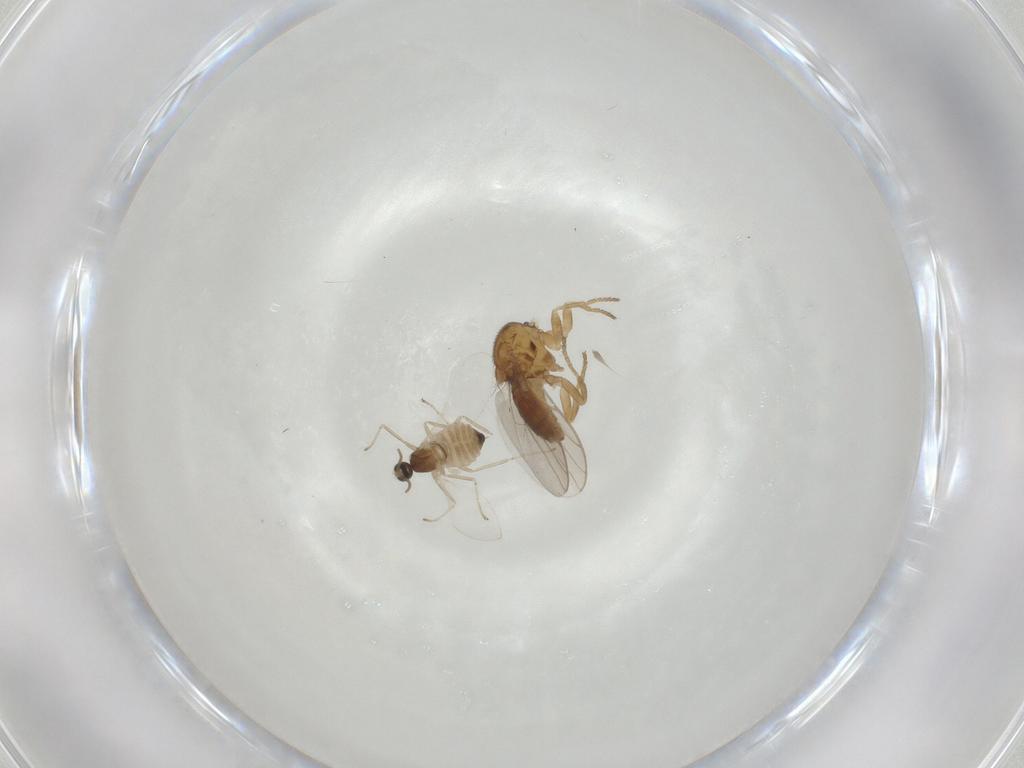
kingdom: Animalia
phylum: Arthropoda
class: Insecta
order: Diptera
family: Chloropidae
